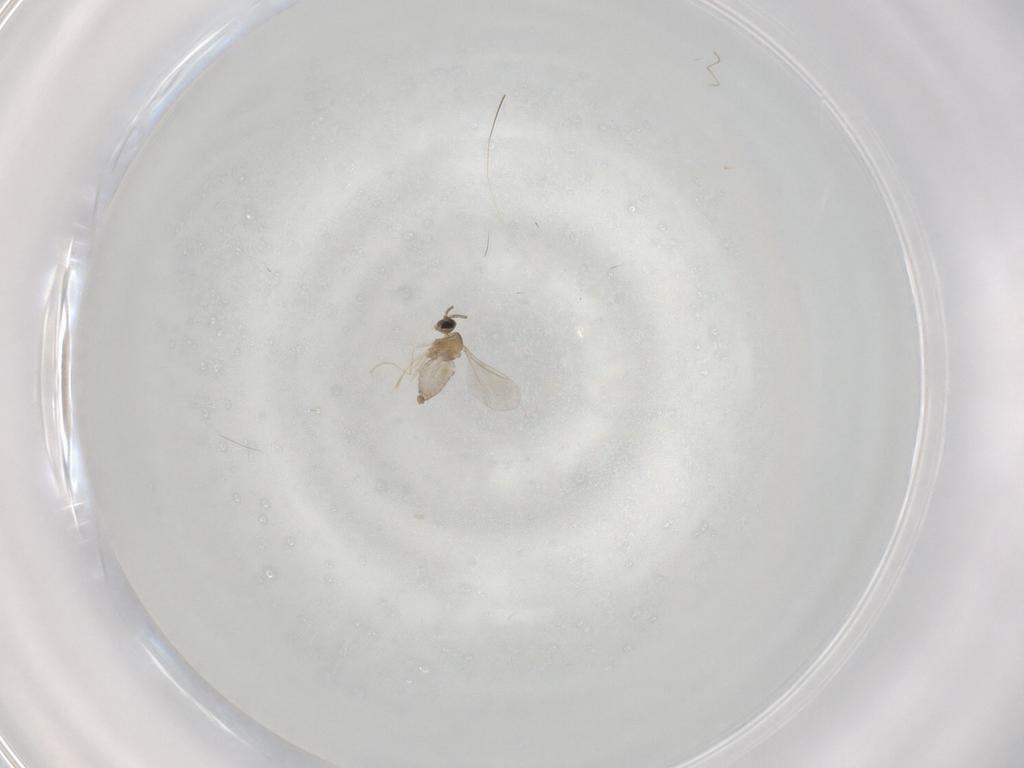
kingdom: Animalia
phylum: Arthropoda
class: Insecta
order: Diptera
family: Cecidomyiidae
